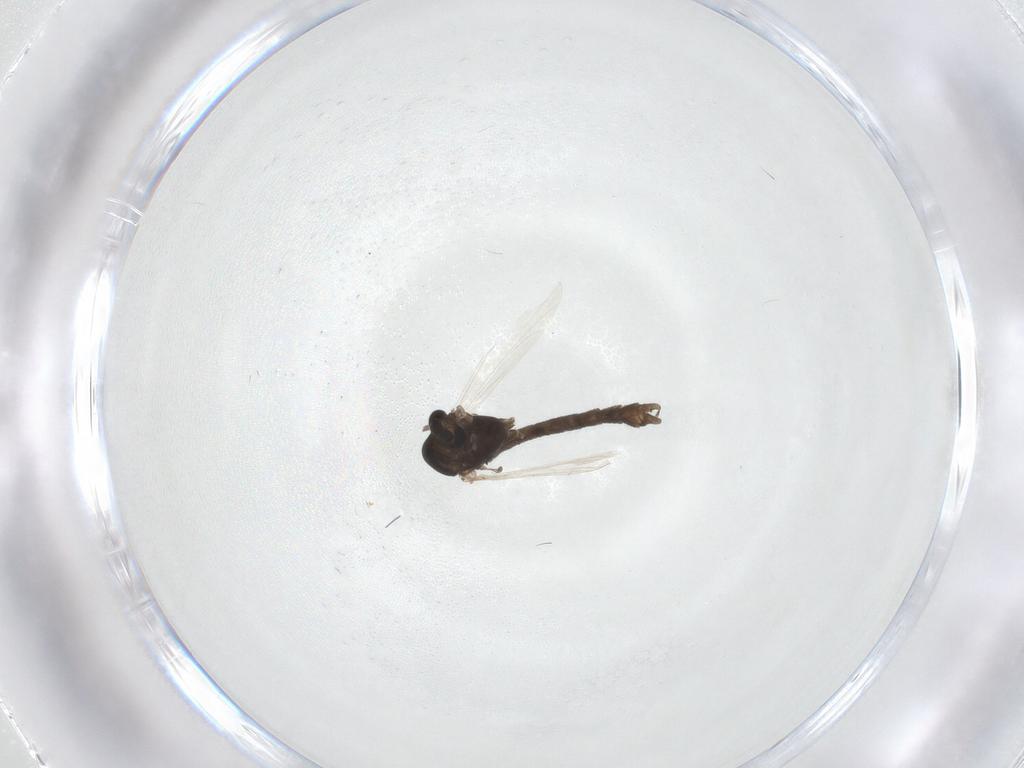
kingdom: Animalia
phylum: Arthropoda
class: Insecta
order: Diptera
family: Chironomidae
